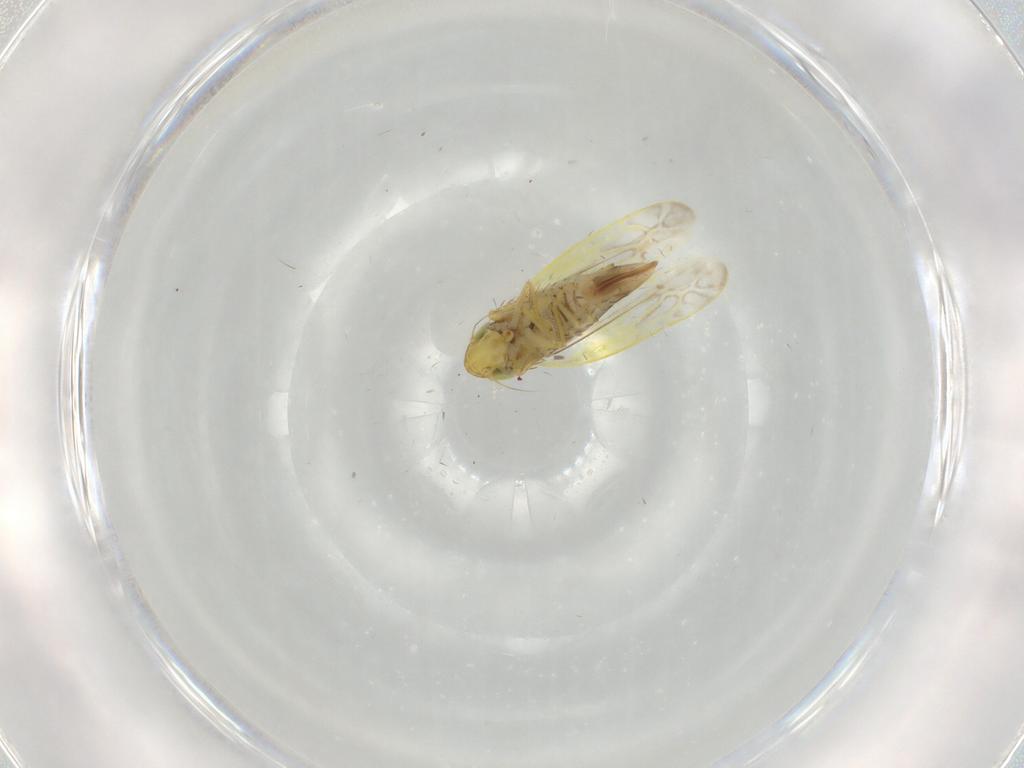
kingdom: Animalia
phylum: Arthropoda
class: Insecta
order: Hemiptera
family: Cicadellidae
